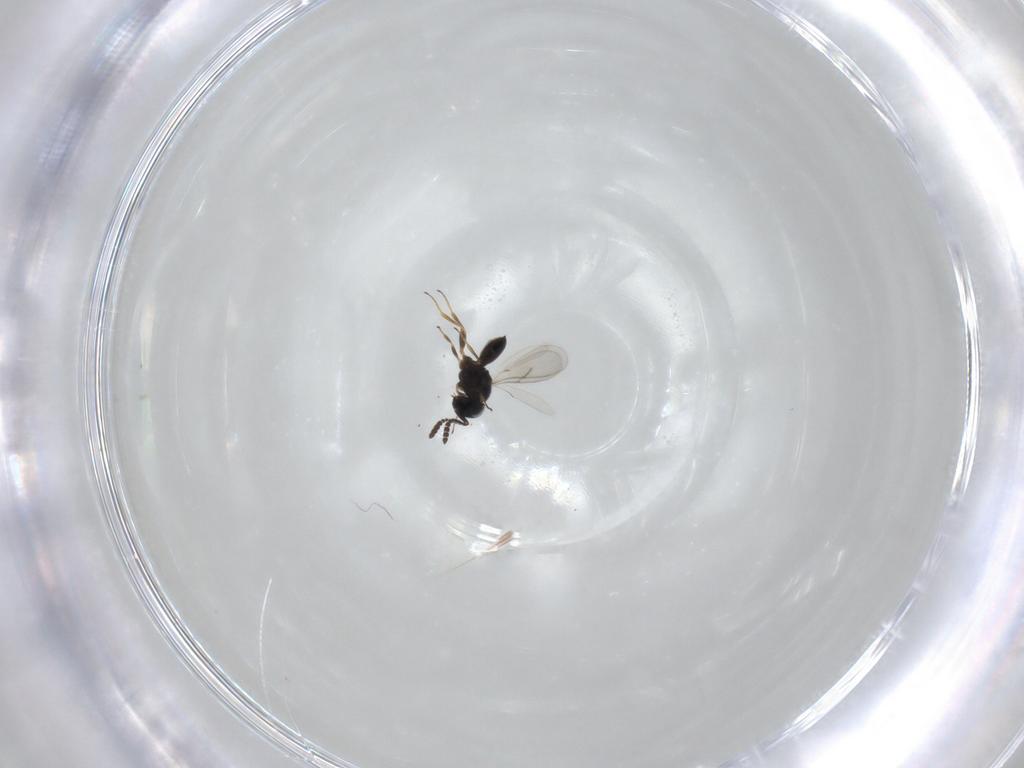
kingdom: Animalia
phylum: Arthropoda
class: Insecta
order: Hymenoptera
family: Scelionidae
